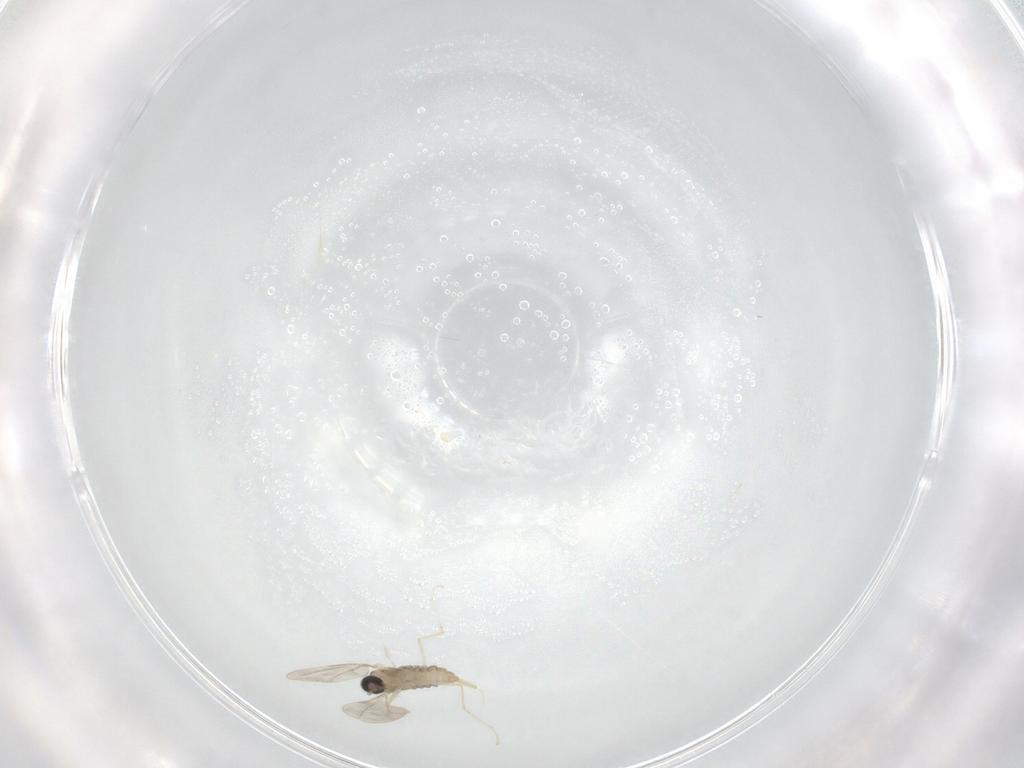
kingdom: Animalia
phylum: Arthropoda
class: Insecta
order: Diptera
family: Cecidomyiidae
